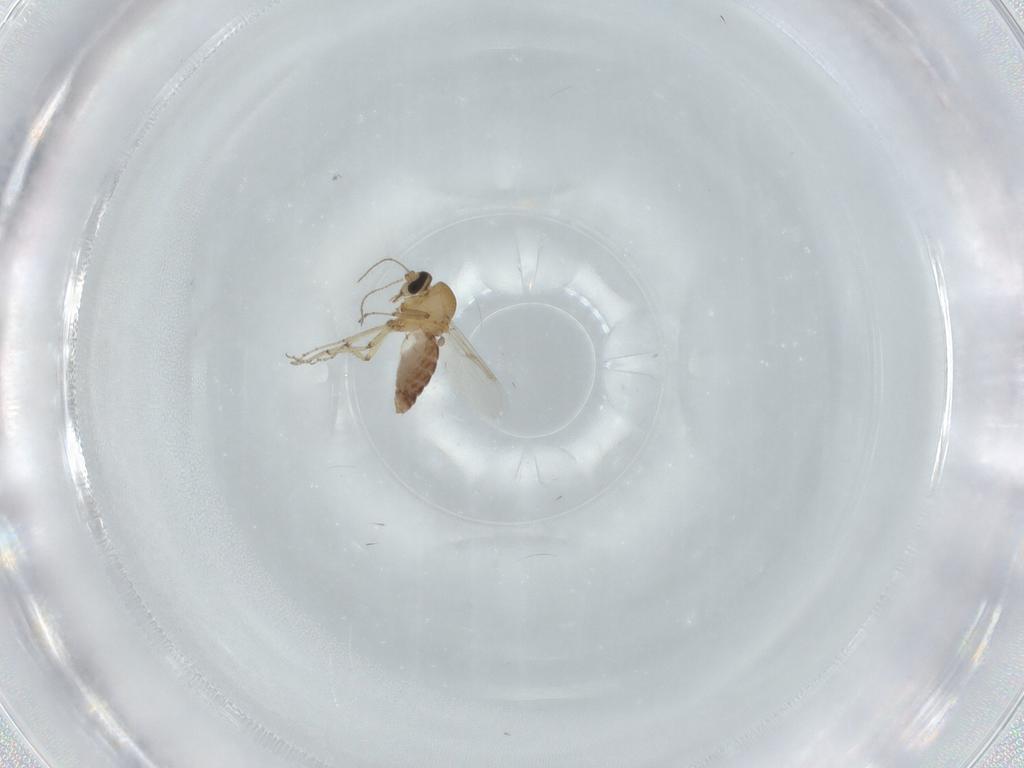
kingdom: Animalia
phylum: Arthropoda
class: Insecta
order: Diptera
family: Ceratopogonidae
